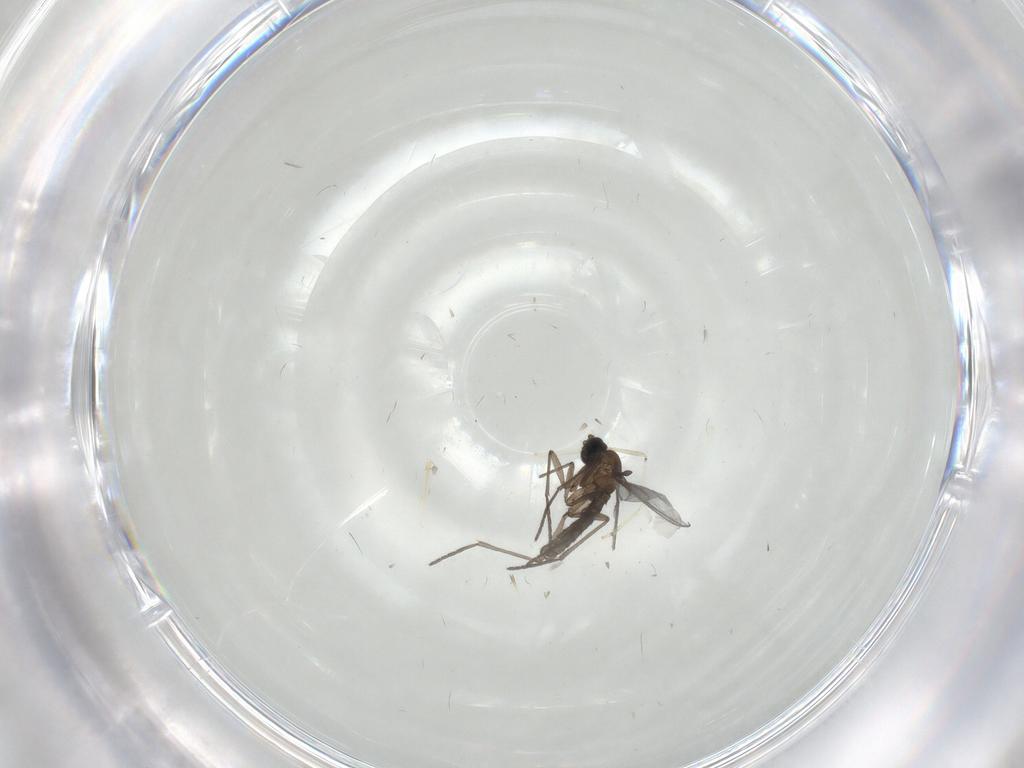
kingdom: Animalia
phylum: Arthropoda
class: Insecta
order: Diptera
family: Cecidomyiidae
